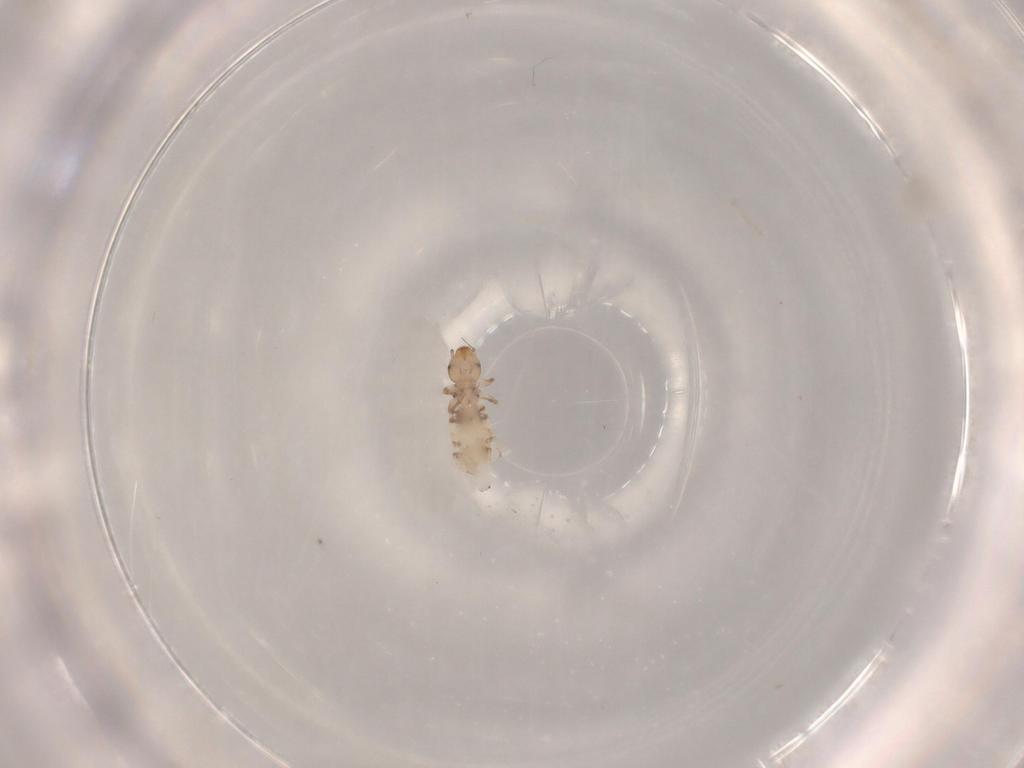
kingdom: Animalia
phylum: Arthropoda
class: Insecta
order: Psocodea
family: Liposcelididae
